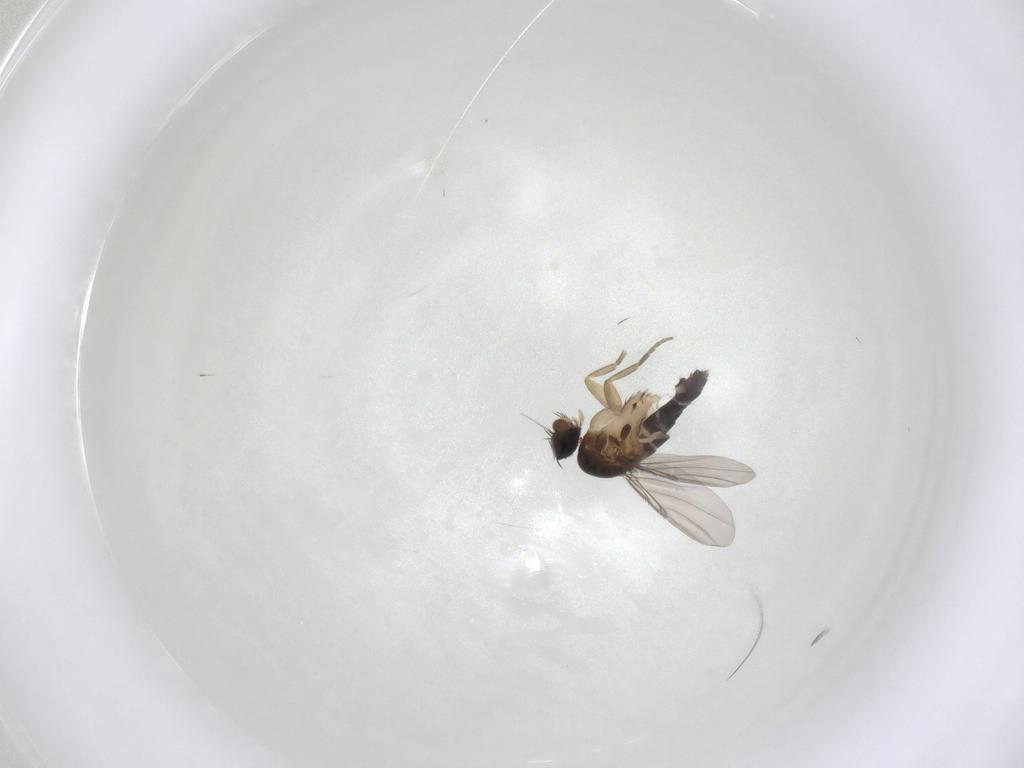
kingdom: Animalia
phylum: Arthropoda
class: Insecta
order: Diptera
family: Phoridae
